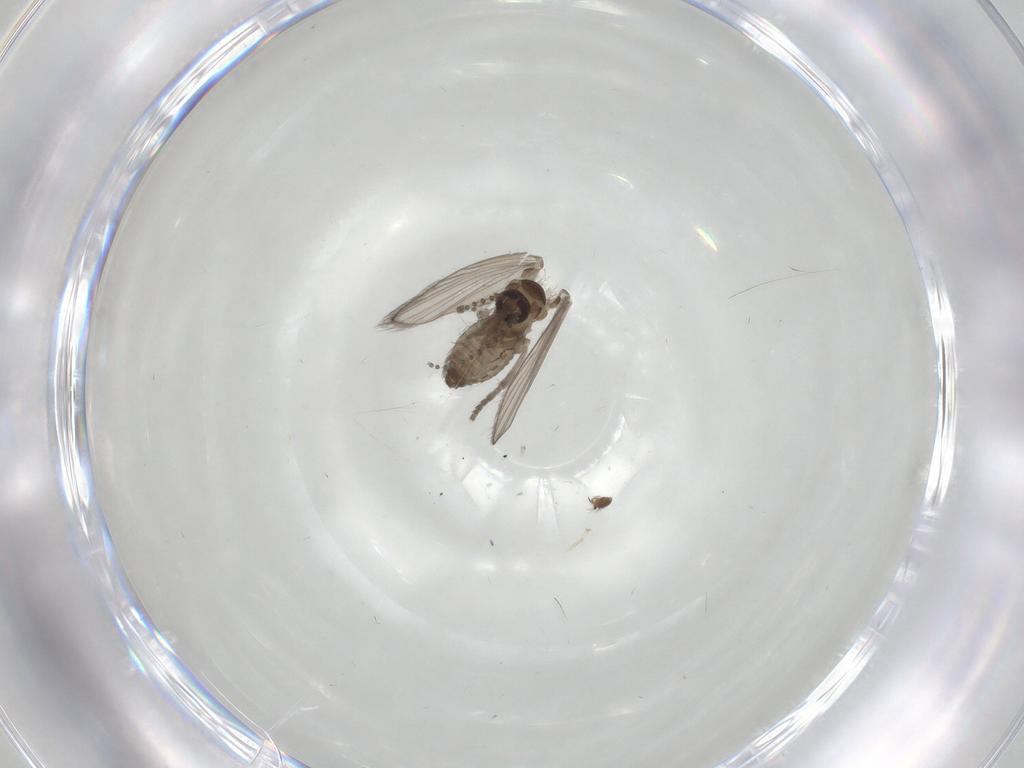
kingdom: Animalia
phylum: Arthropoda
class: Insecta
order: Diptera
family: Psychodidae
